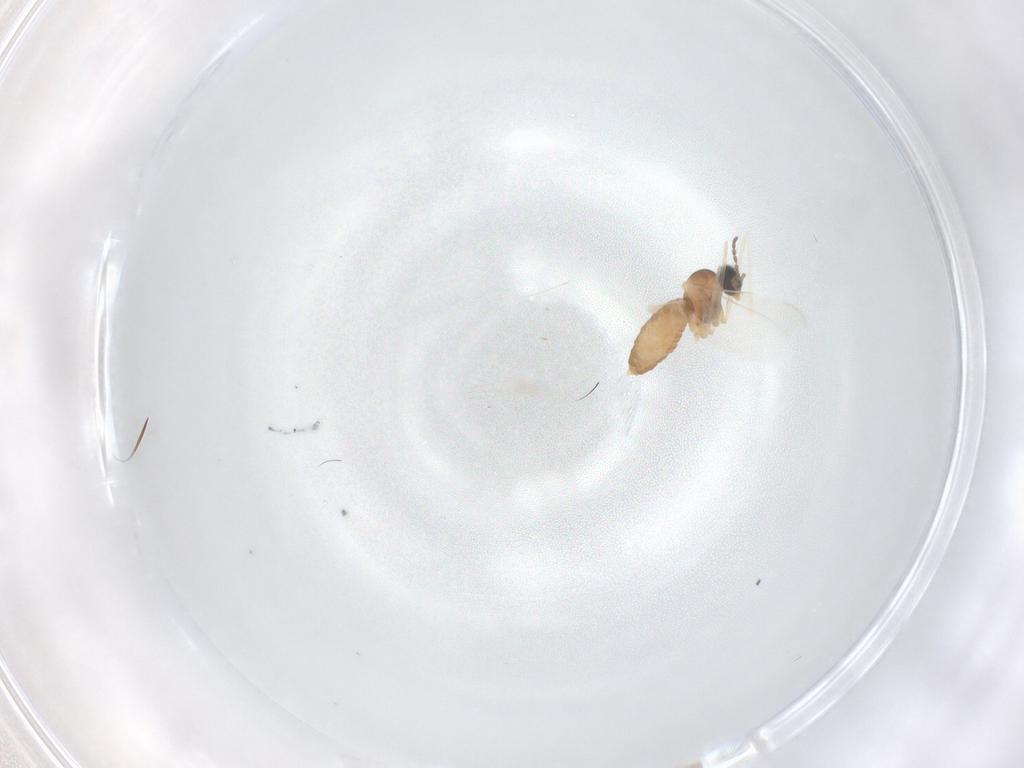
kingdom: Animalia
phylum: Arthropoda
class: Insecta
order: Diptera
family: Cecidomyiidae
